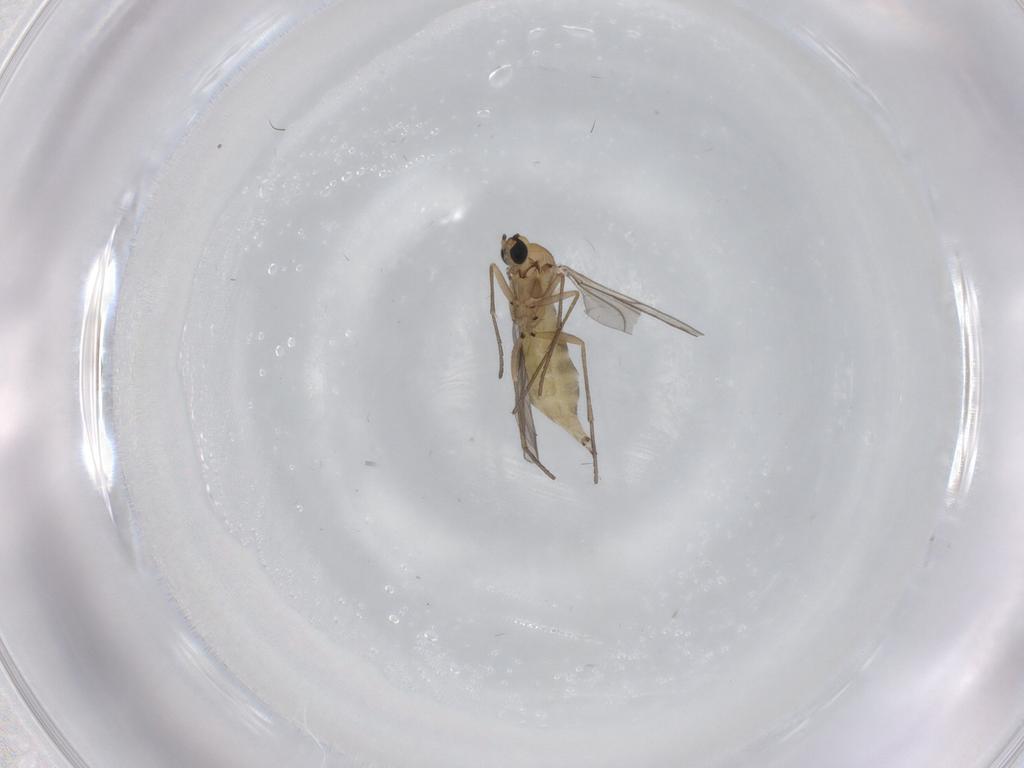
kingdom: Animalia
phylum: Arthropoda
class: Insecta
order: Diptera
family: Sciaridae
